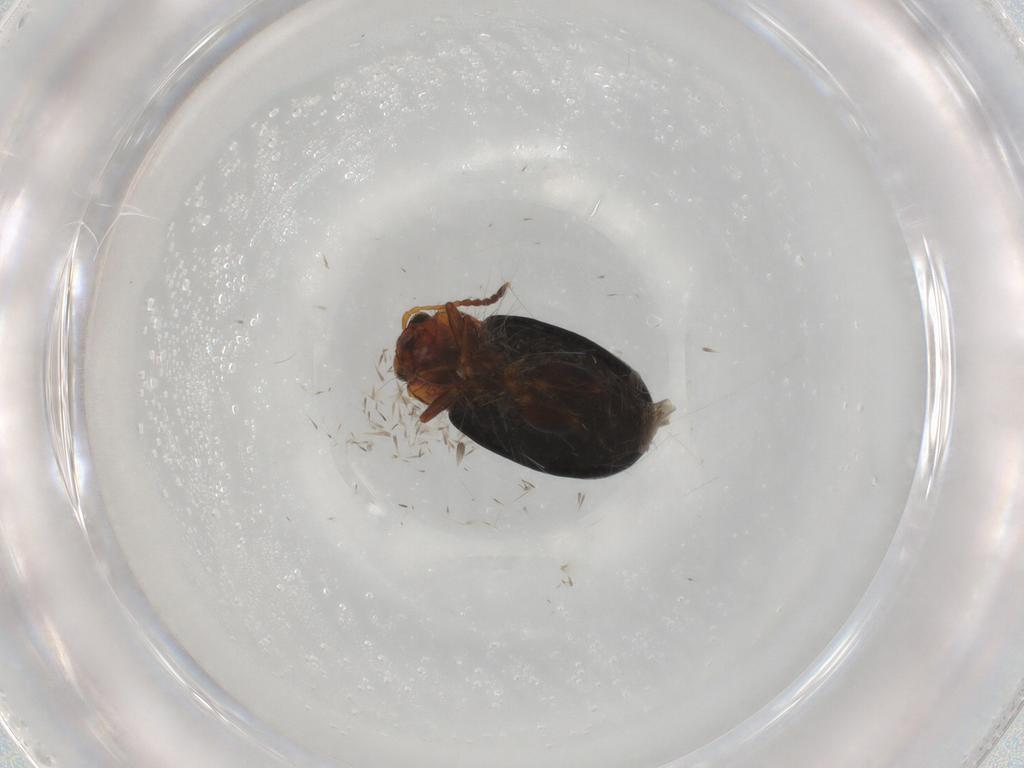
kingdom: Animalia
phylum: Arthropoda
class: Insecta
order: Coleoptera
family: Chrysomelidae
